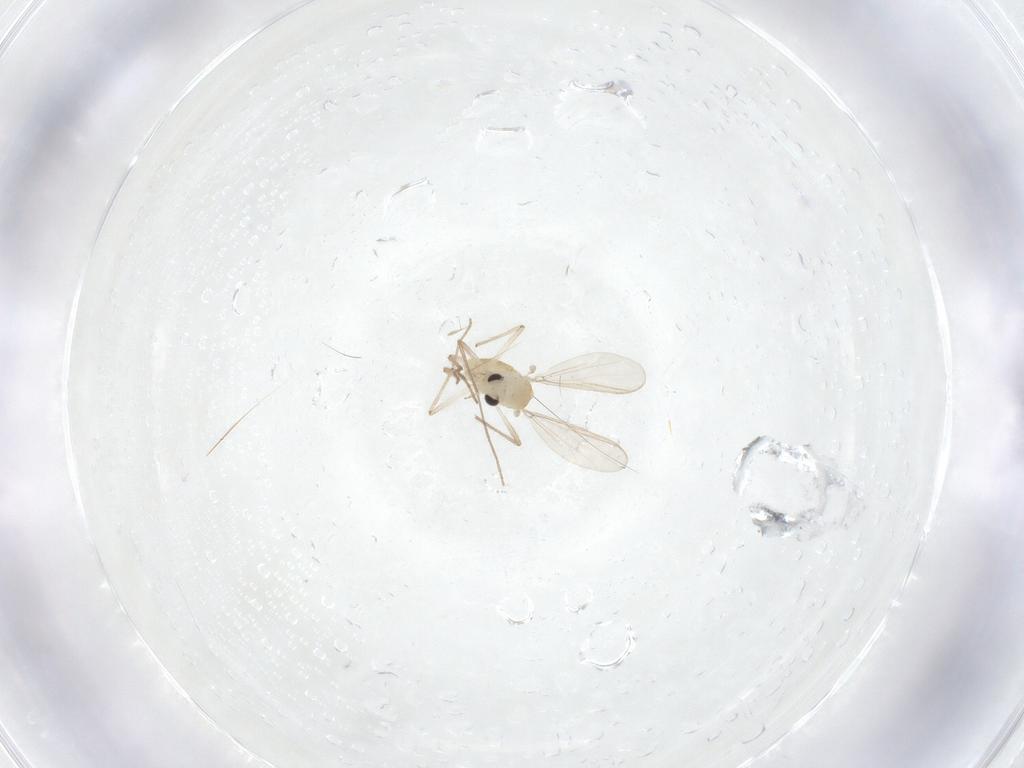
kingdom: Animalia
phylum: Arthropoda
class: Insecta
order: Diptera
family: Chironomidae
